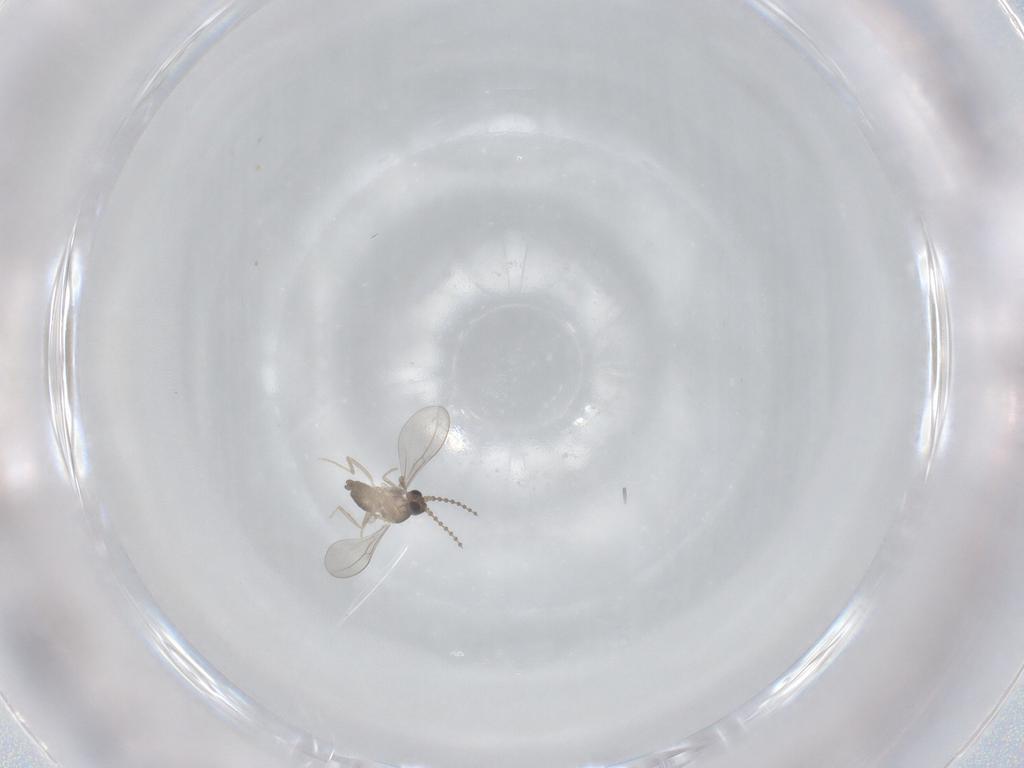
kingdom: Animalia
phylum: Arthropoda
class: Insecta
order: Diptera
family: Cecidomyiidae
